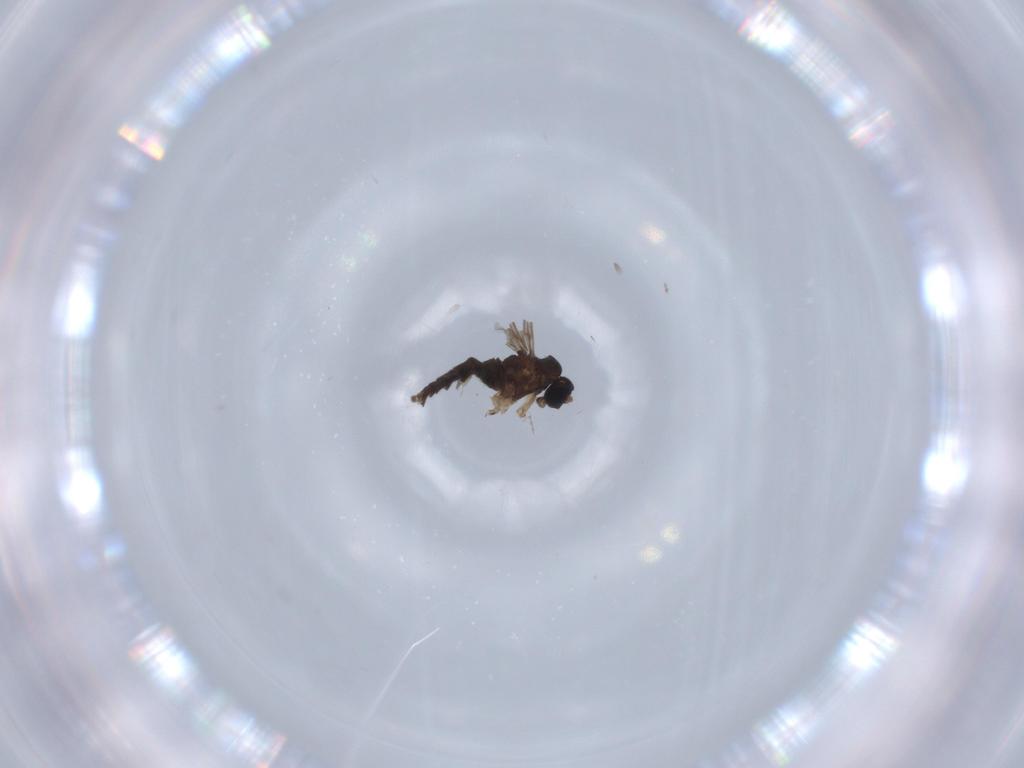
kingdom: Animalia
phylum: Arthropoda
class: Insecta
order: Diptera
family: Sciaridae
